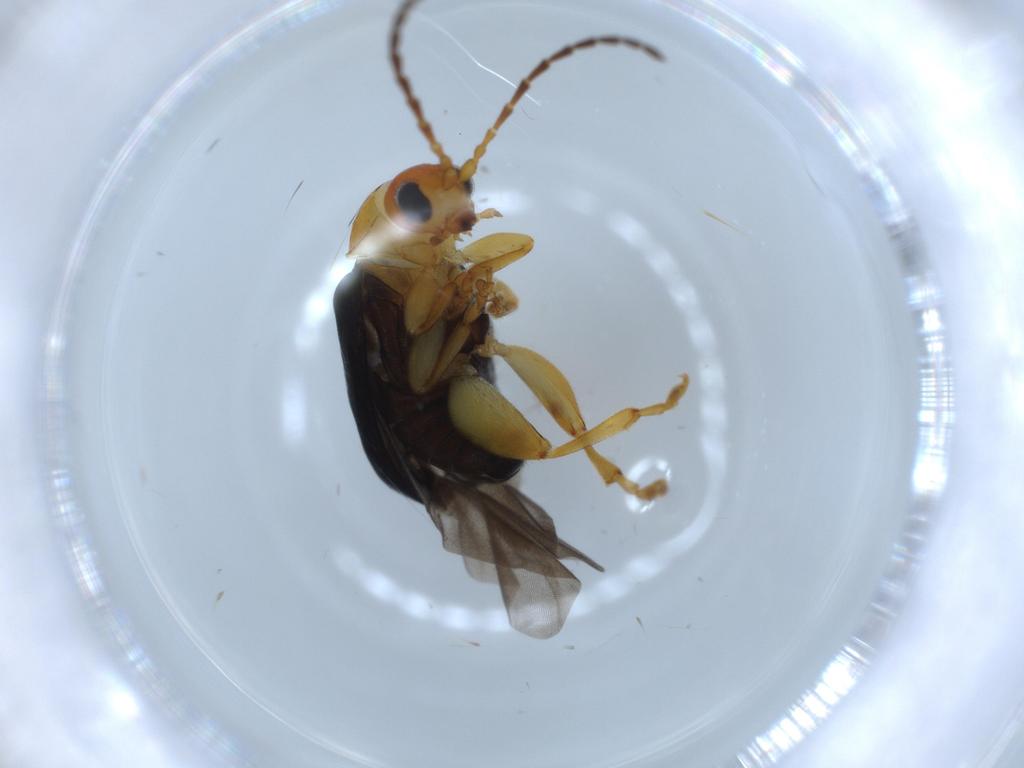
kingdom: Animalia
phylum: Arthropoda
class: Insecta
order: Coleoptera
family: Chrysomelidae
